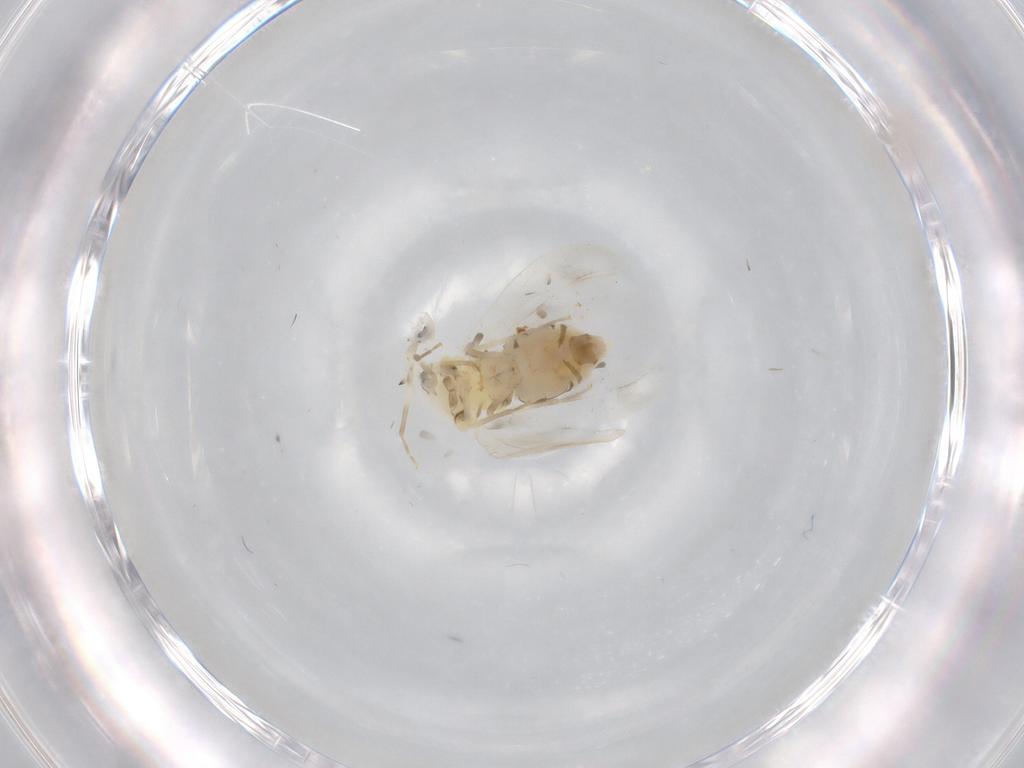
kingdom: Animalia
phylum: Arthropoda
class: Insecta
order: Hemiptera
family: Aleyrodidae
